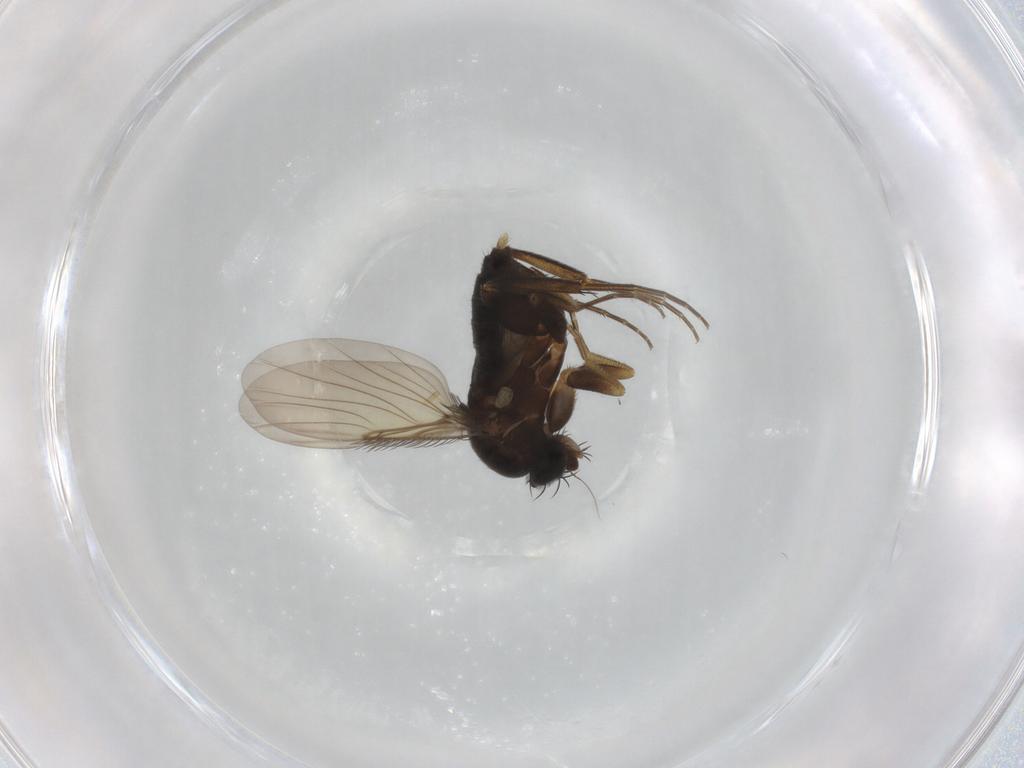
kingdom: Animalia
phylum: Arthropoda
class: Insecta
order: Diptera
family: Phoridae
